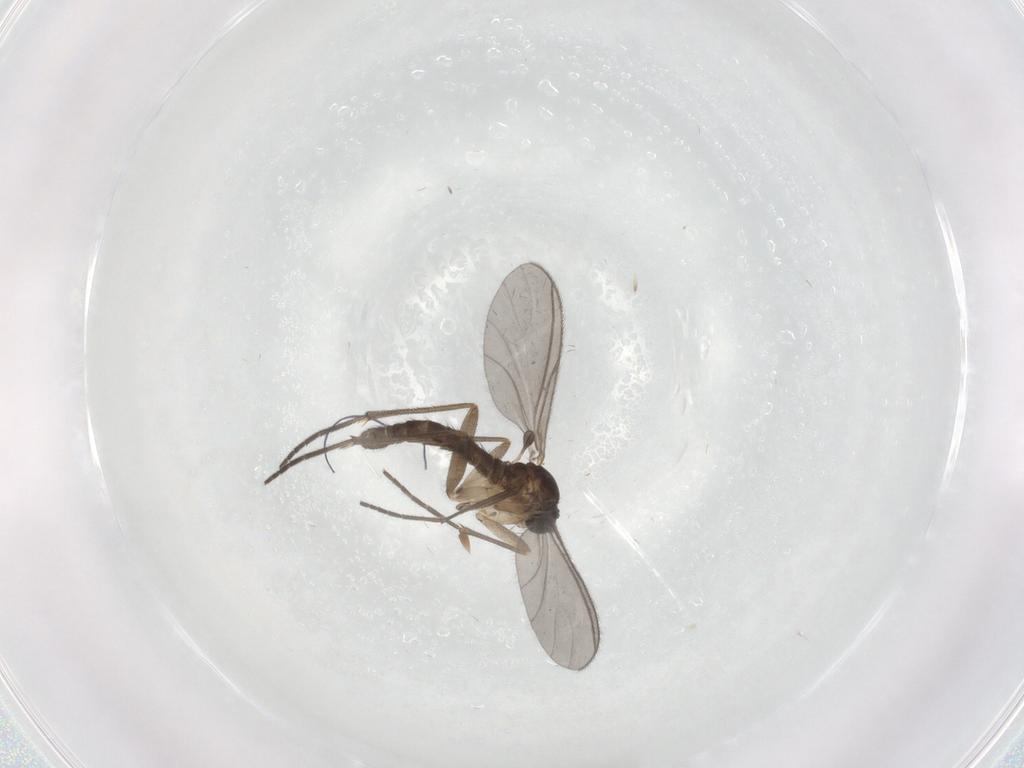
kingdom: Animalia
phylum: Arthropoda
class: Insecta
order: Diptera
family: Sciaridae
